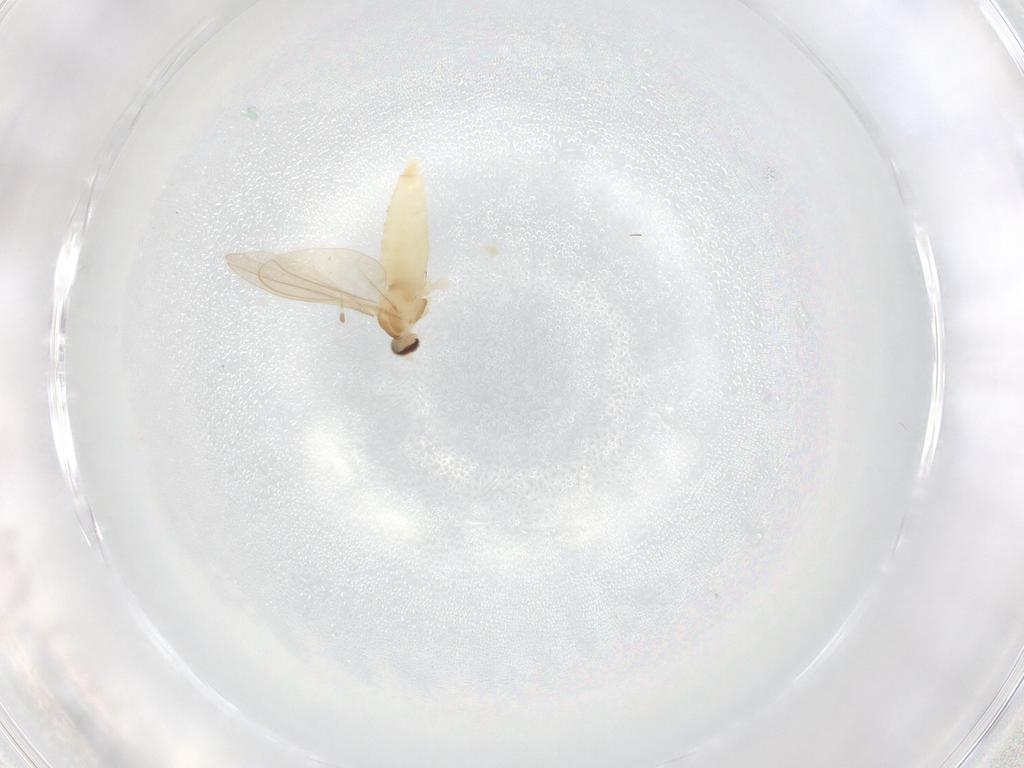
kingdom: Animalia
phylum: Arthropoda
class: Insecta
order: Diptera
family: Cecidomyiidae
